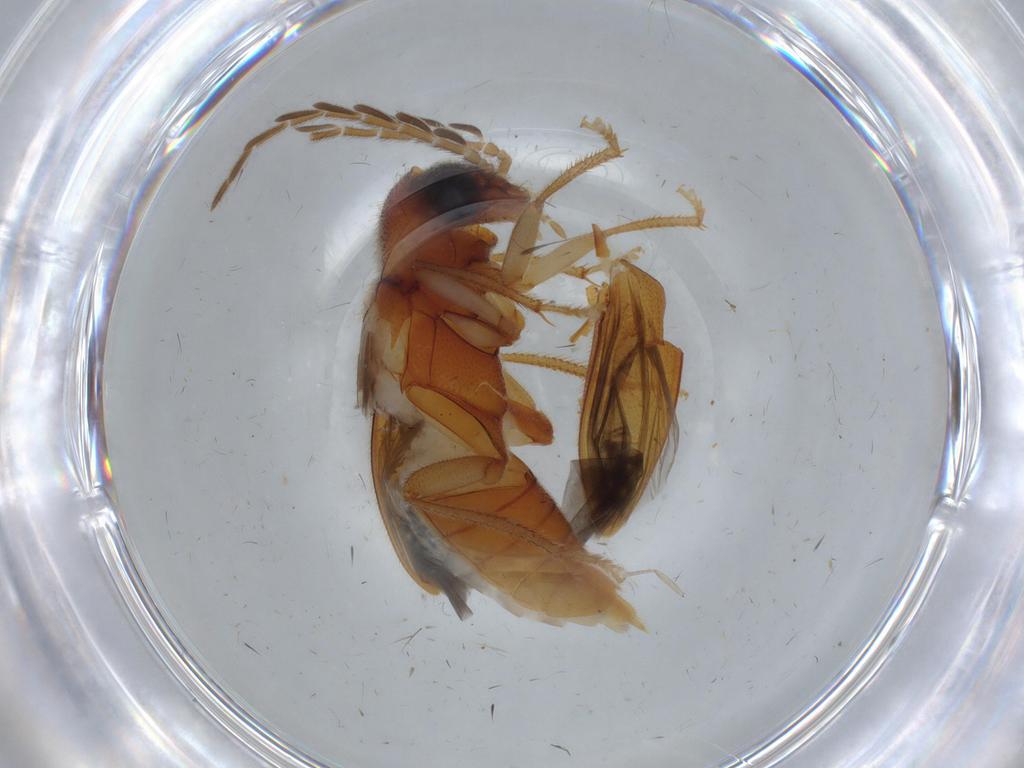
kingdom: Animalia
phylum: Arthropoda
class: Insecta
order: Coleoptera
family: Ptilodactylidae
